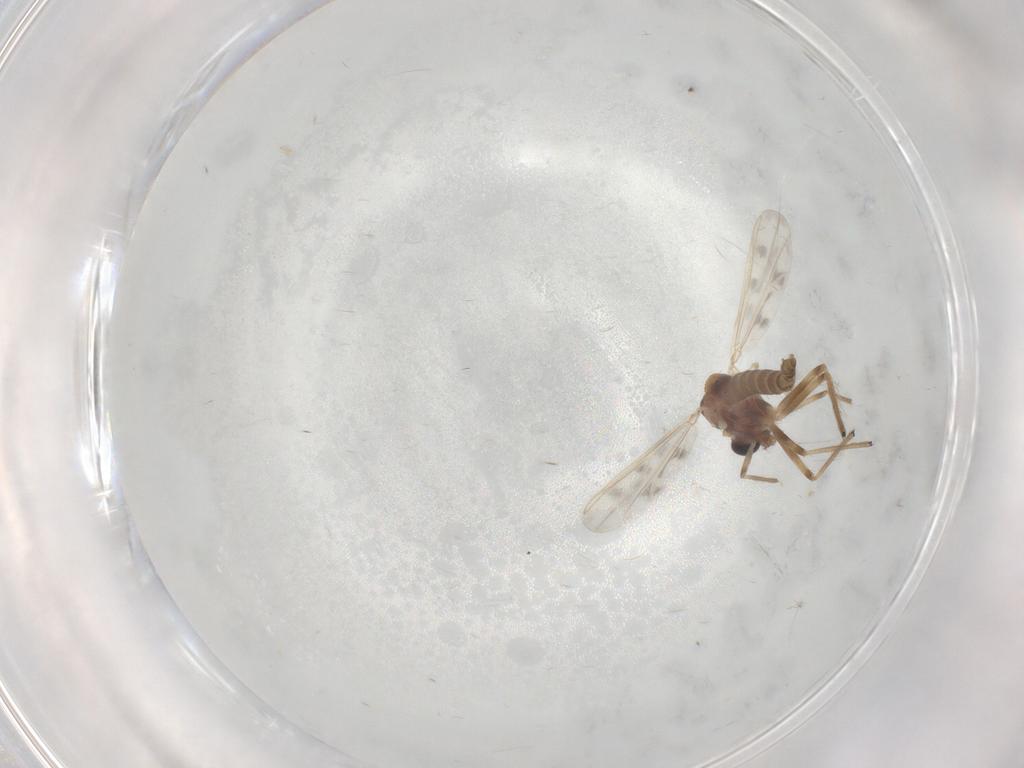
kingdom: Animalia
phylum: Arthropoda
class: Insecta
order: Diptera
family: Chironomidae
